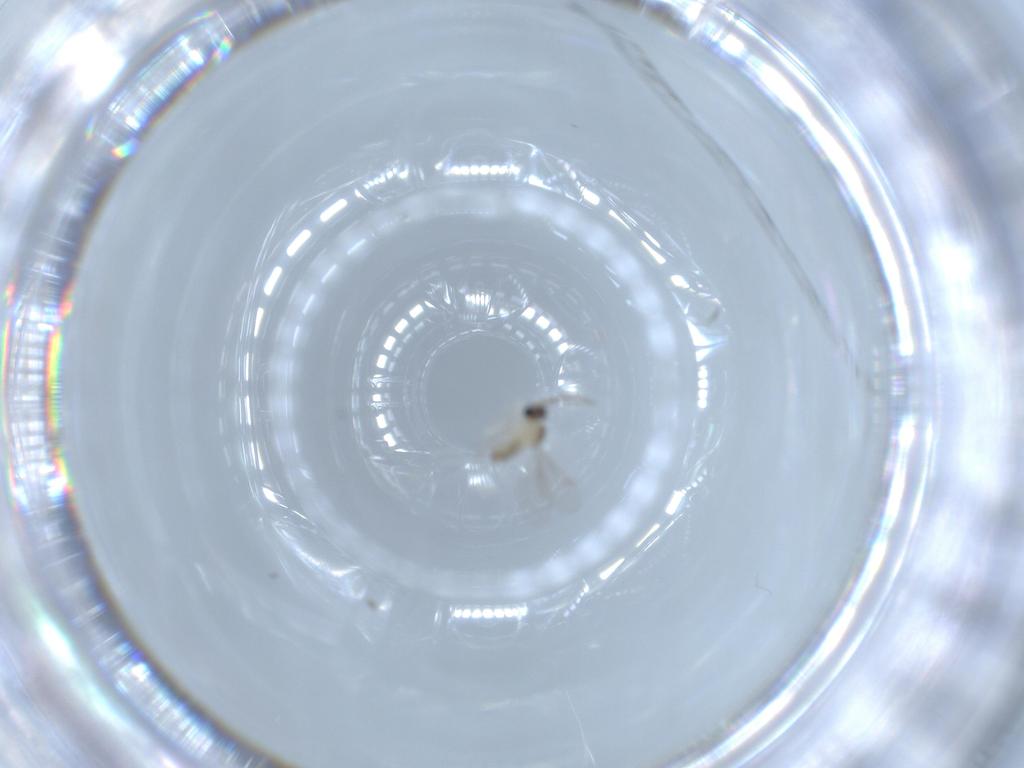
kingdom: Animalia
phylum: Arthropoda
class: Insecta
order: Diptera
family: Cecidomyiidae
